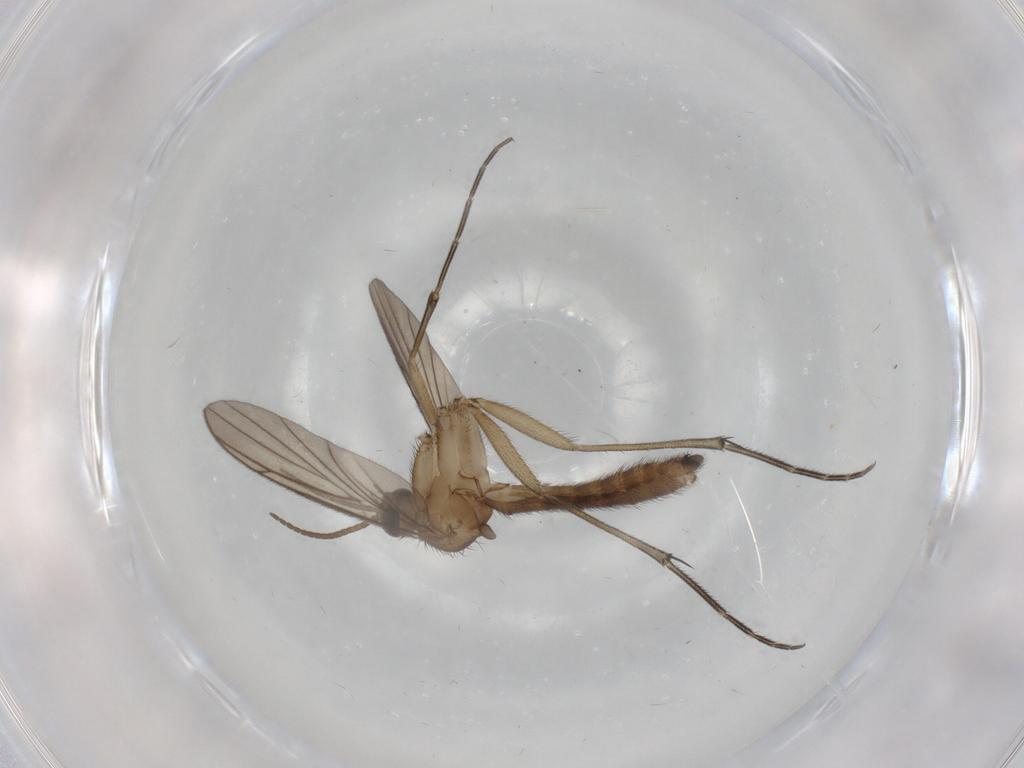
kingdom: Animalia
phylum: Arthropoda
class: Insecta
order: Diptera
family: Keroplatidae
